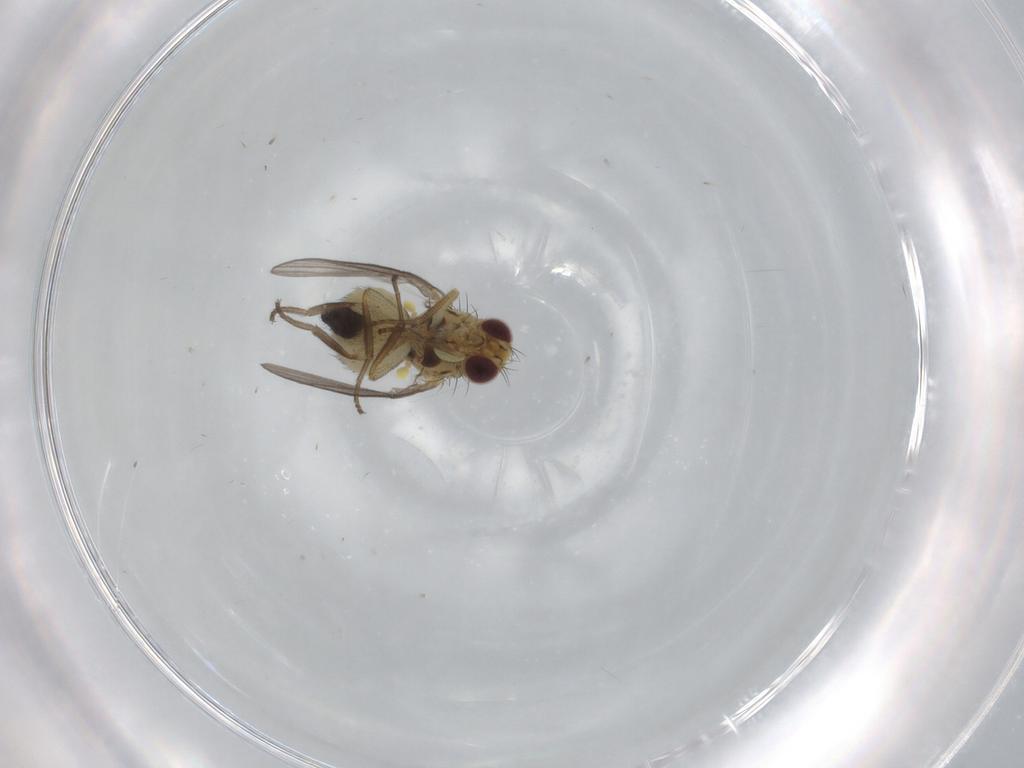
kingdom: Animalia
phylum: Arthropoda
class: Insecta
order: Diptera
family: Agromyzidae
